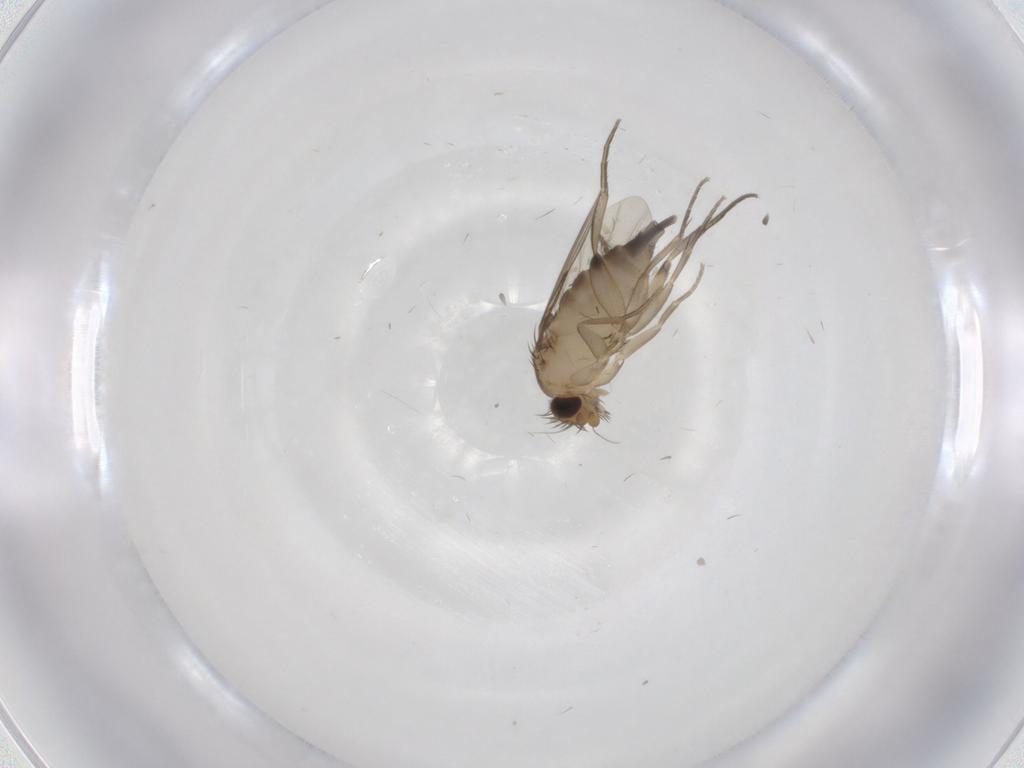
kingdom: Animalia
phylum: Arthropoda
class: Insecta
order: Diptera
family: Phoridae
